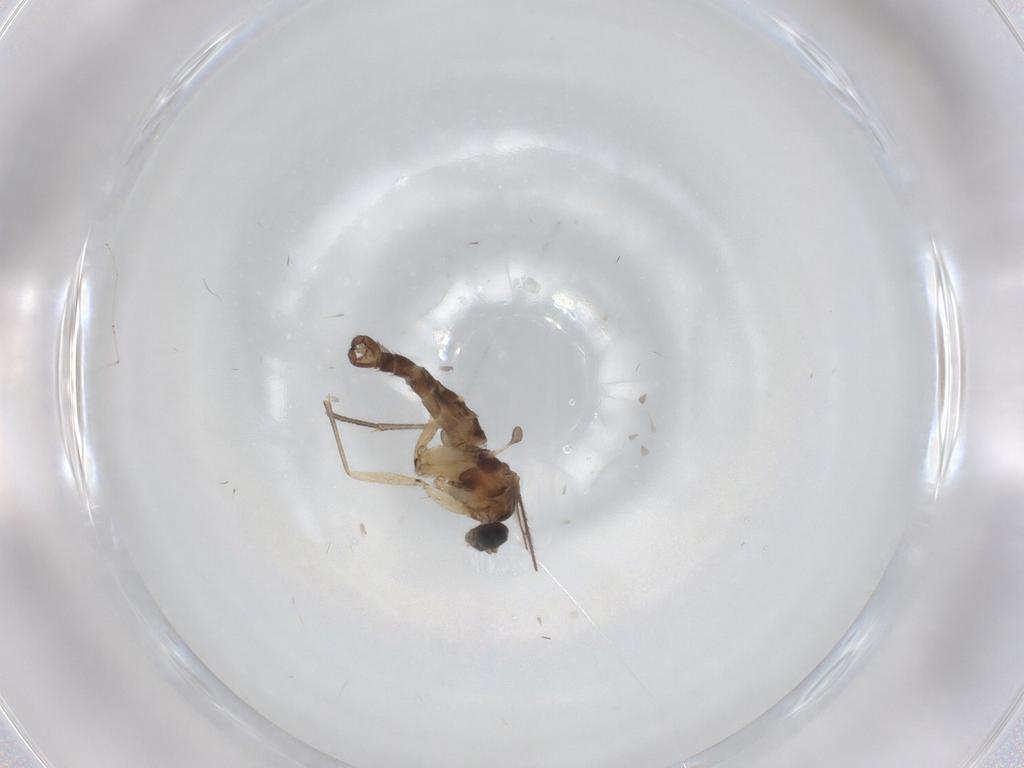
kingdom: Animalia
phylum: Arthropoda
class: Insecta
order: Diptera
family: Sciaridae
